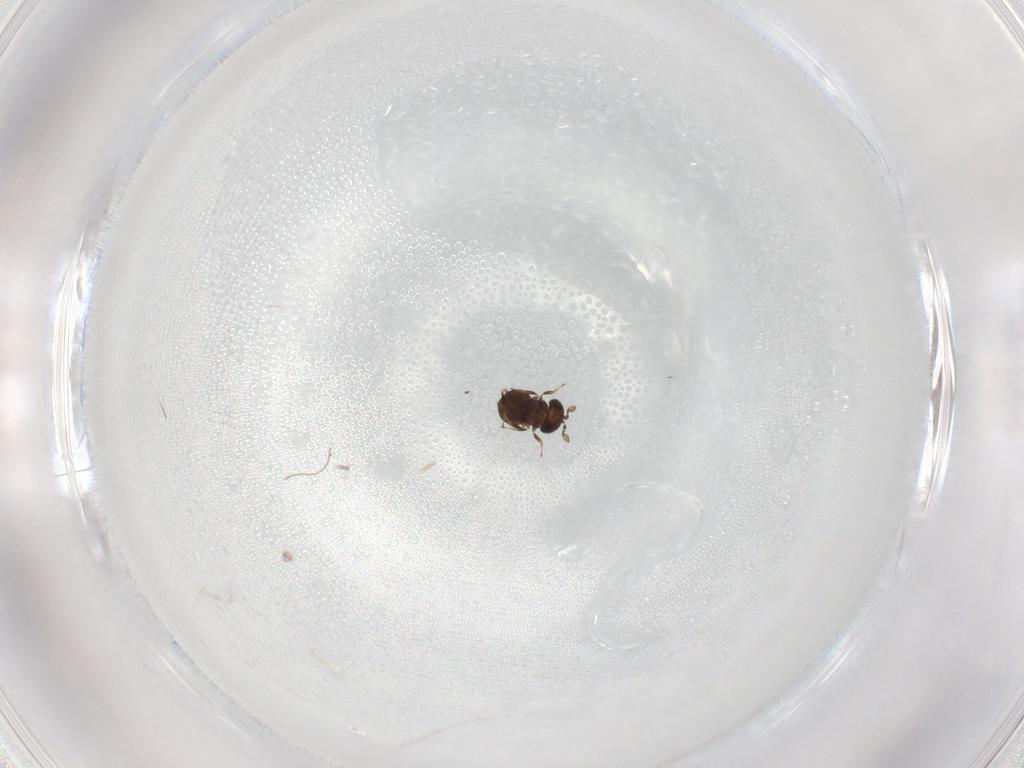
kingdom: Animalia
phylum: Arthropoda
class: Insecta
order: Hymenoptera
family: Scelionidae
